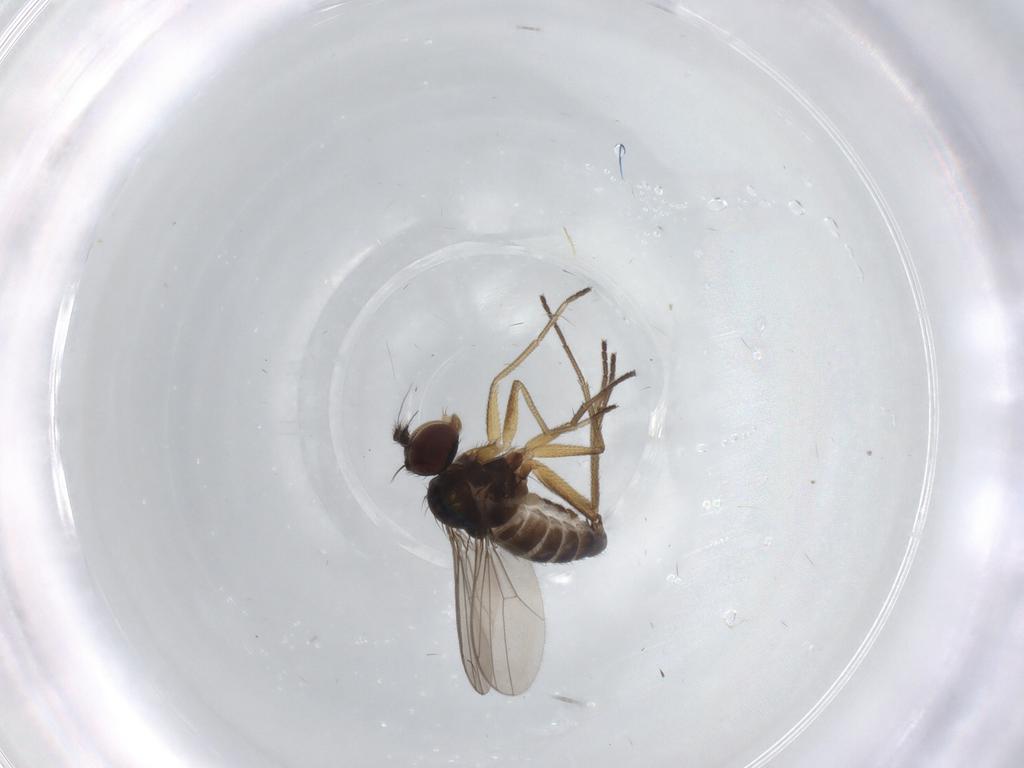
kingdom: Animalia
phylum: Arthropoda
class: Insecta
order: Diptera
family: Dolichopodidae
